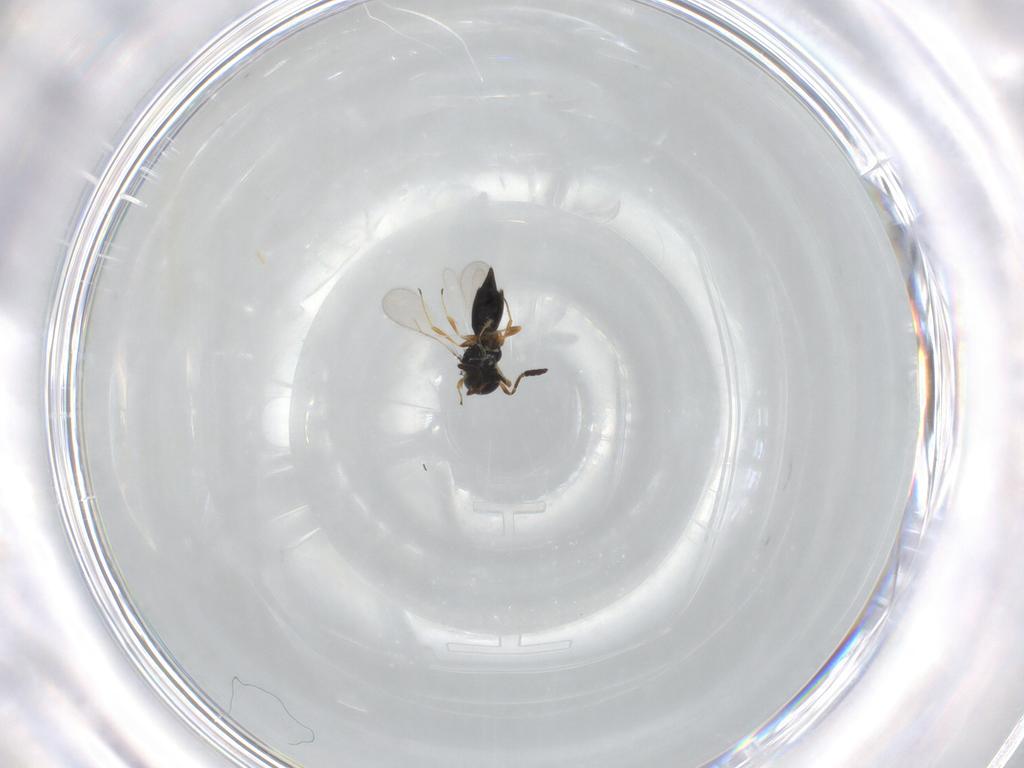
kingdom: Animalia
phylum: Arthropoda
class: Insecta
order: Hymenoptera
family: Scelionidae
